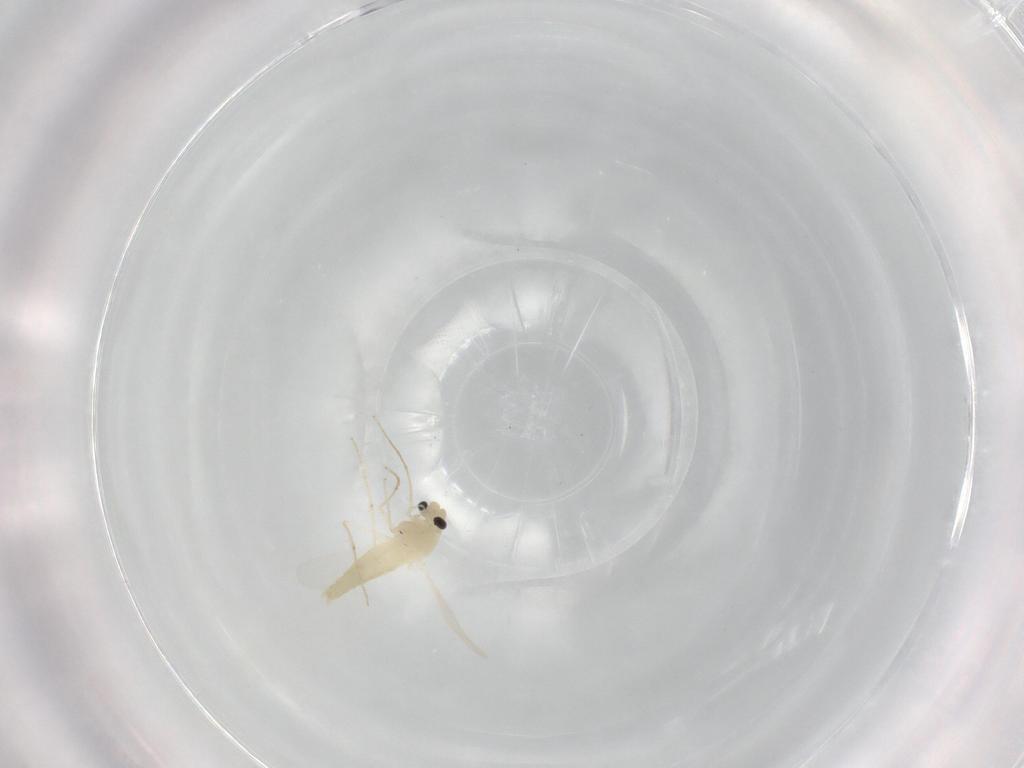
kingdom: Animalia
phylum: Arthropoda
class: Insecta
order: Diptera
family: Chironomidae
